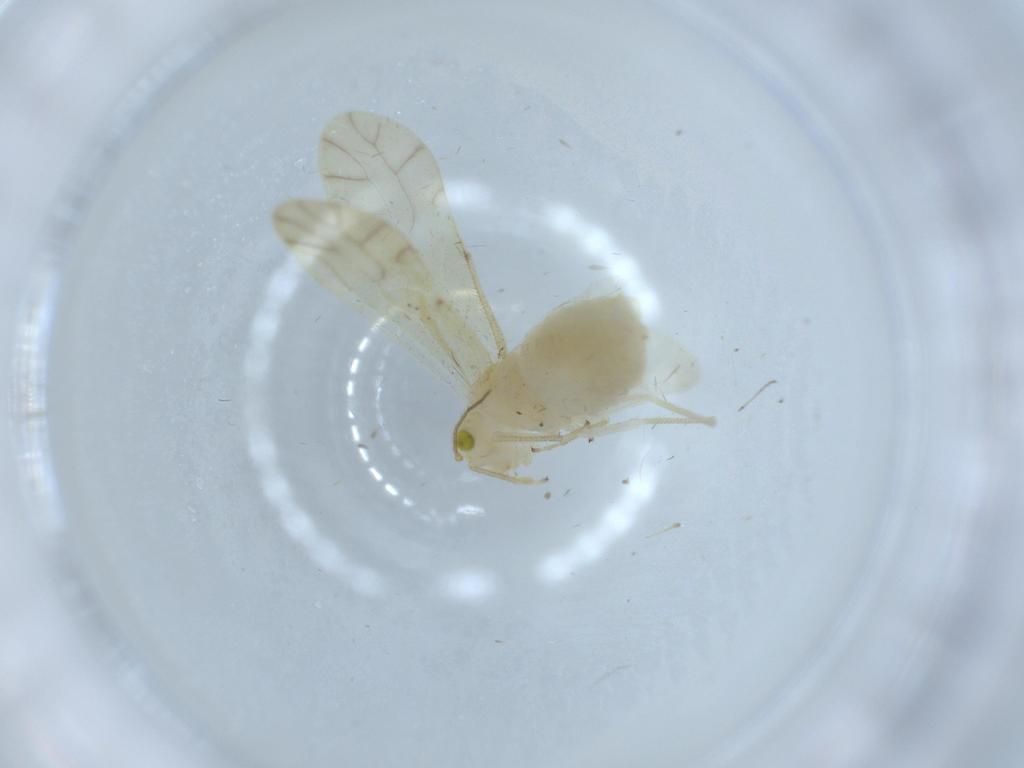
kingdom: Animalia
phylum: Arthropoda
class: Insecta
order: Psocodea
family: Caeciliusidae
